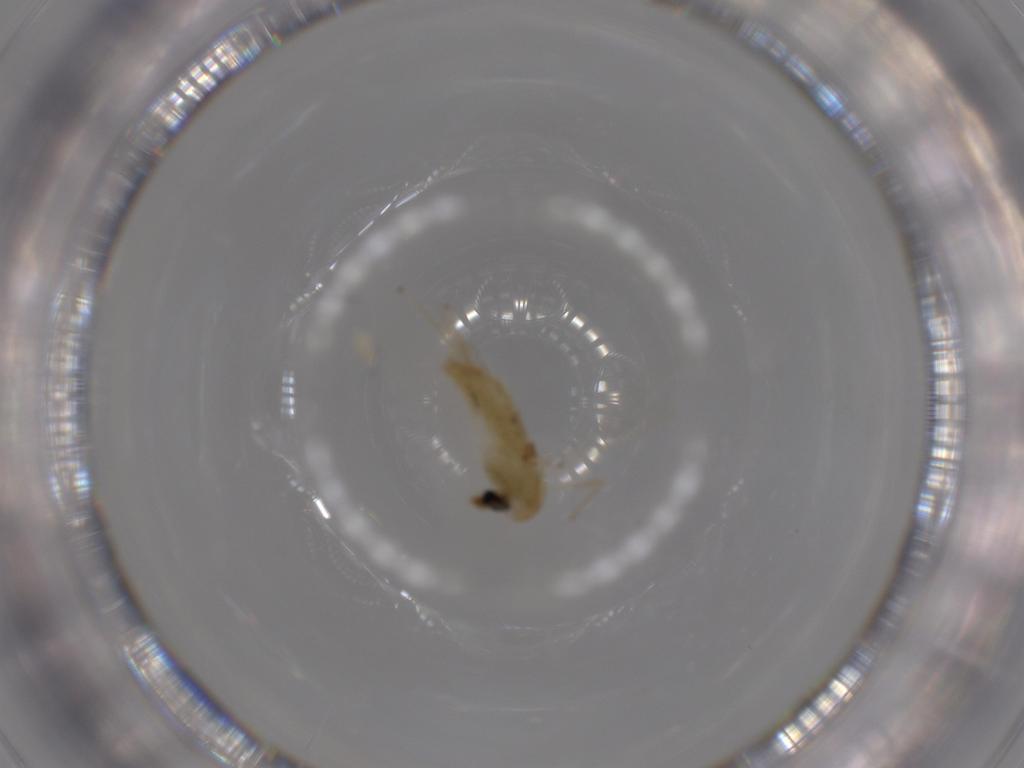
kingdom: Animalia
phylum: Arthropoda
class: Insecta
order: Diptera
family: Chironomidae
